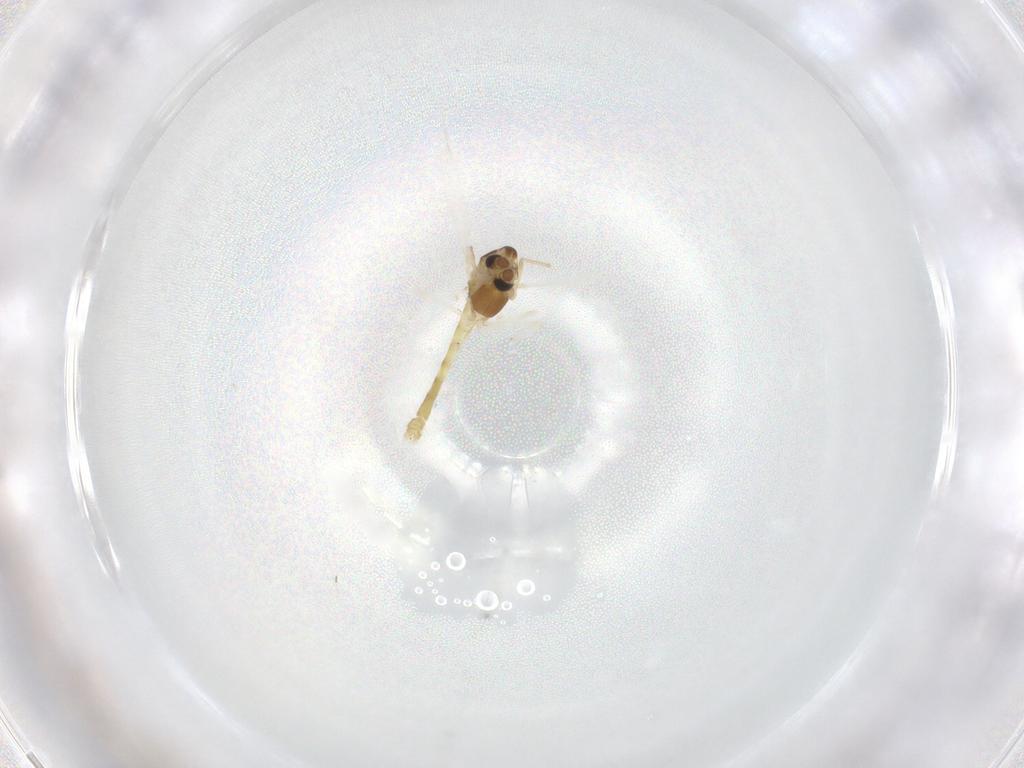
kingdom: Animalia
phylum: Arthropoda
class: Insecta
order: Diptera
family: Chironomidae
